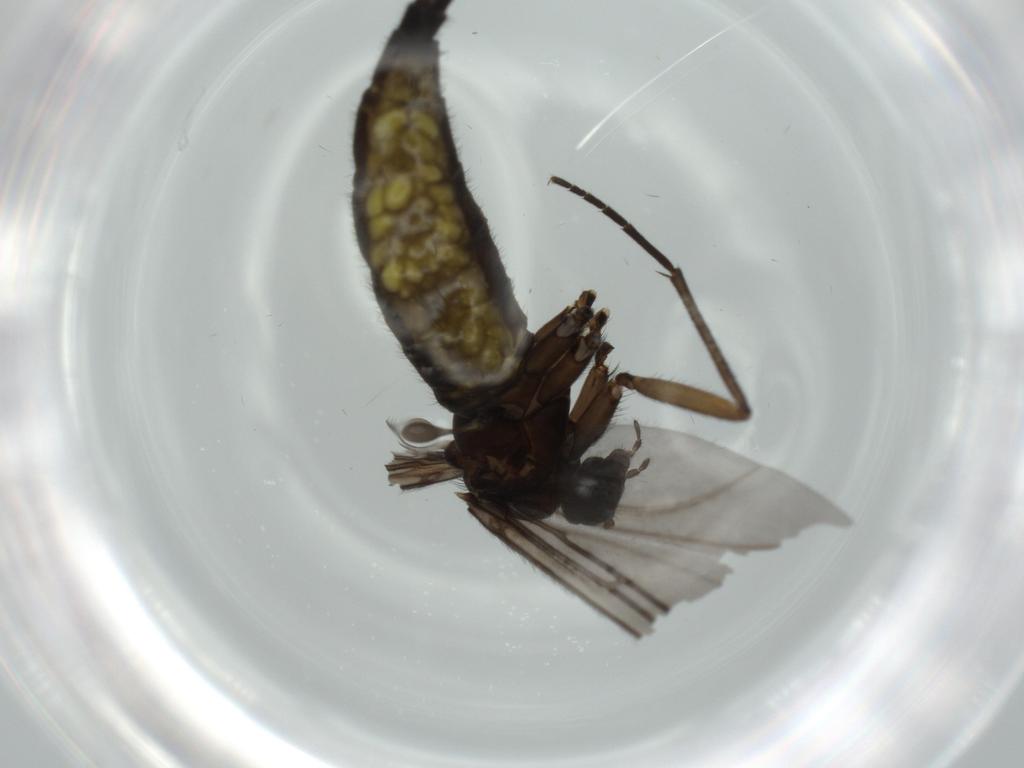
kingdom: Animalia
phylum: Arthropoda
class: Insecta
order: Diptera
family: Sciaridae
